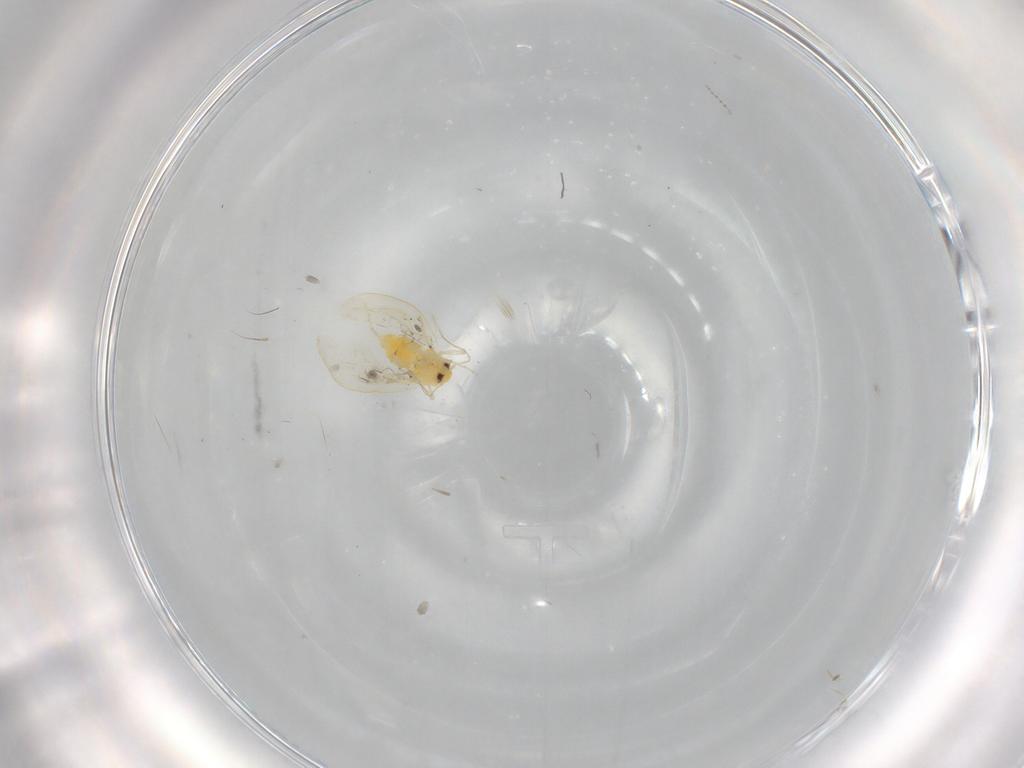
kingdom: Animalia
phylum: Arthropoda
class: Insecta
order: Hemiptera
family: Aleyrodidae
